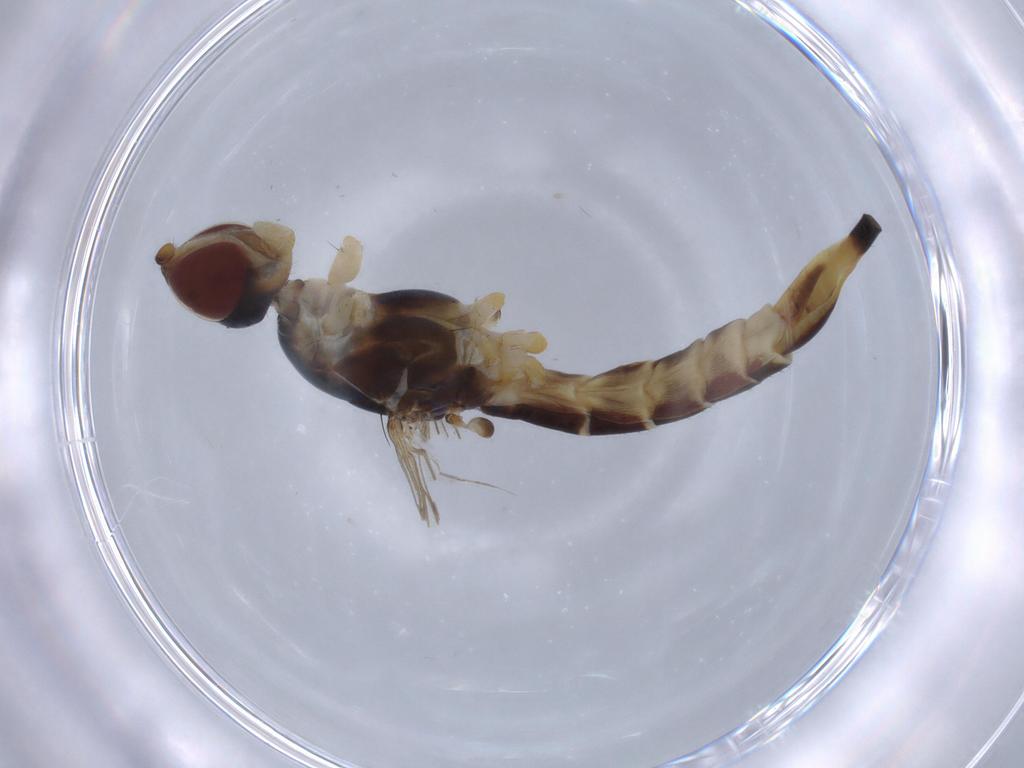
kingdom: Animalia
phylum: Arthropoda
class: Insecta
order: Diptera
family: Micropezidae
